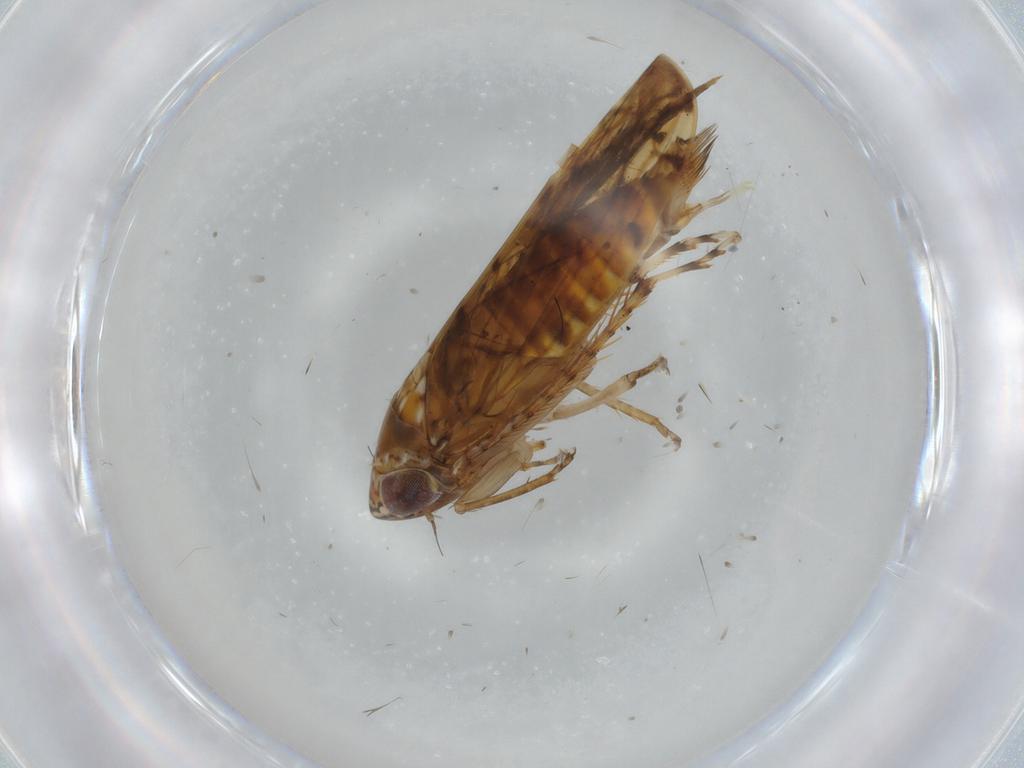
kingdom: Animalia
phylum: Arthropoda
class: Insecta
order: Hemiptera
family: Cicadellidae
